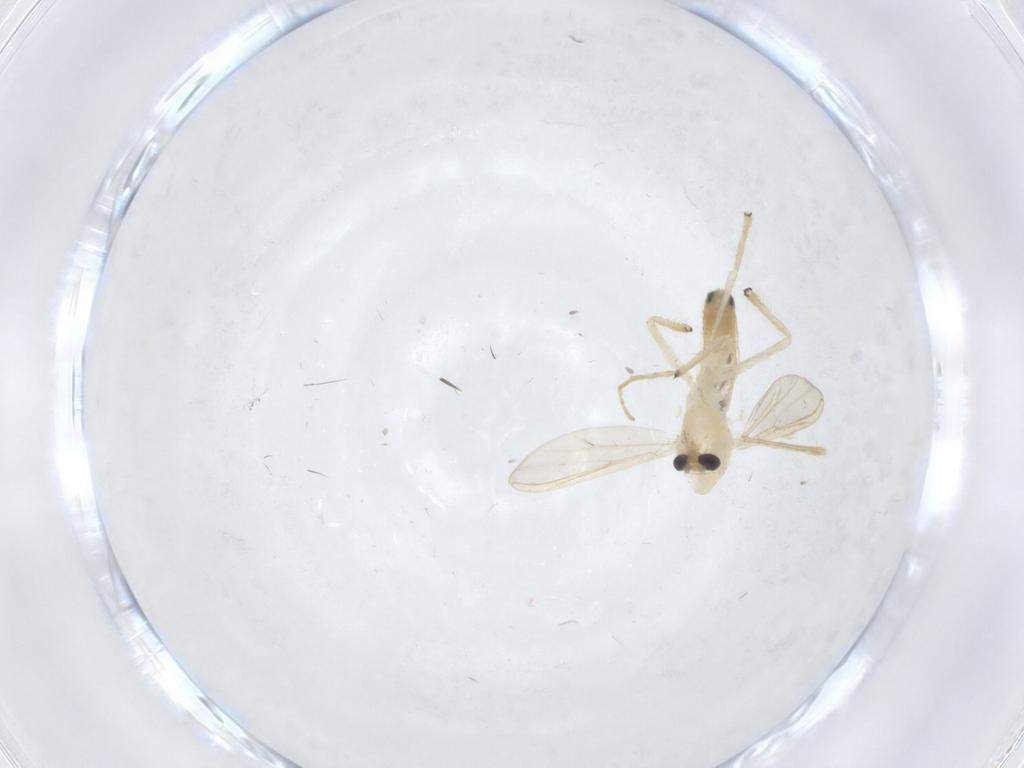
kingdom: Animalia
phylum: Arthropoda
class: Insecta
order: Diptera
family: Chironomidae
